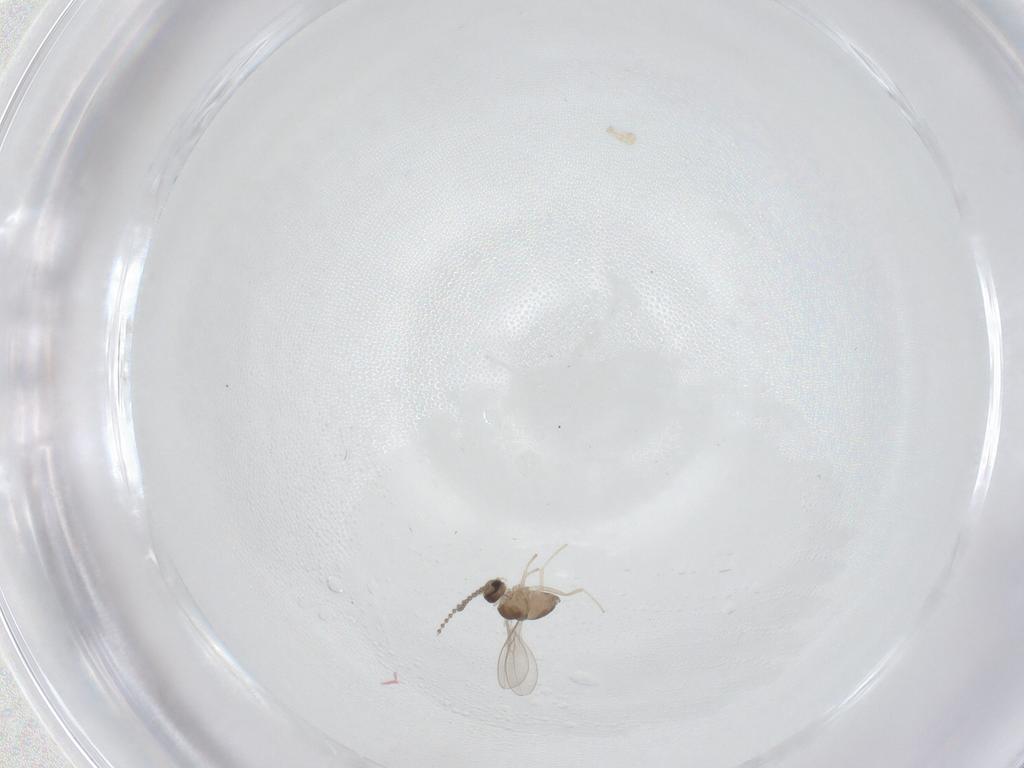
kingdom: Animalia
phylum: Arthropoda
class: Insecta
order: Diptera
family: Cecidomyiidae
